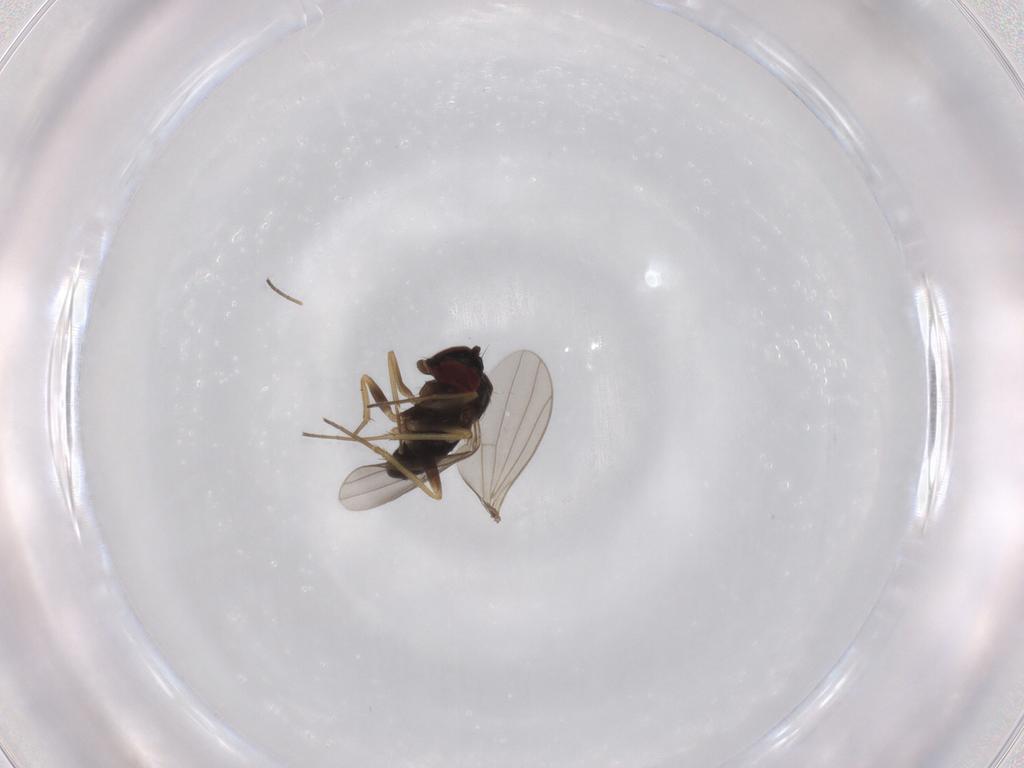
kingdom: Animalia
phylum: Arthropoda
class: Insecta
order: Diptera
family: Dolichopodidae
